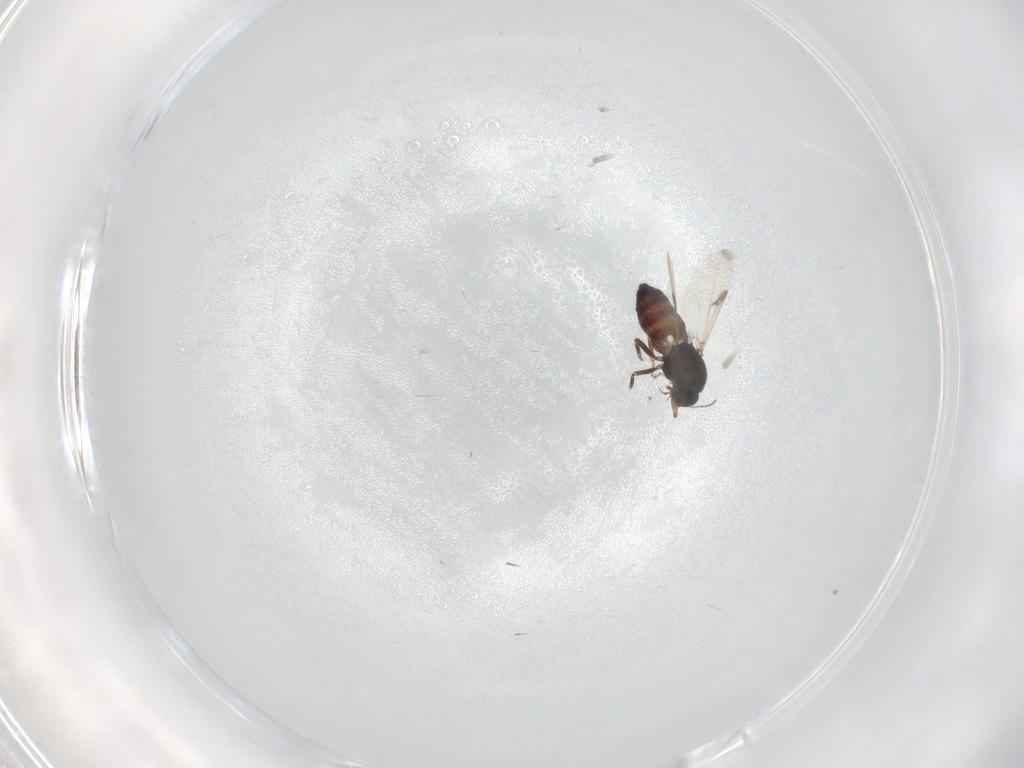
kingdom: Animalia
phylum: Arthropoda
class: Insecta
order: Diptera
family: Ceratopogonidae
